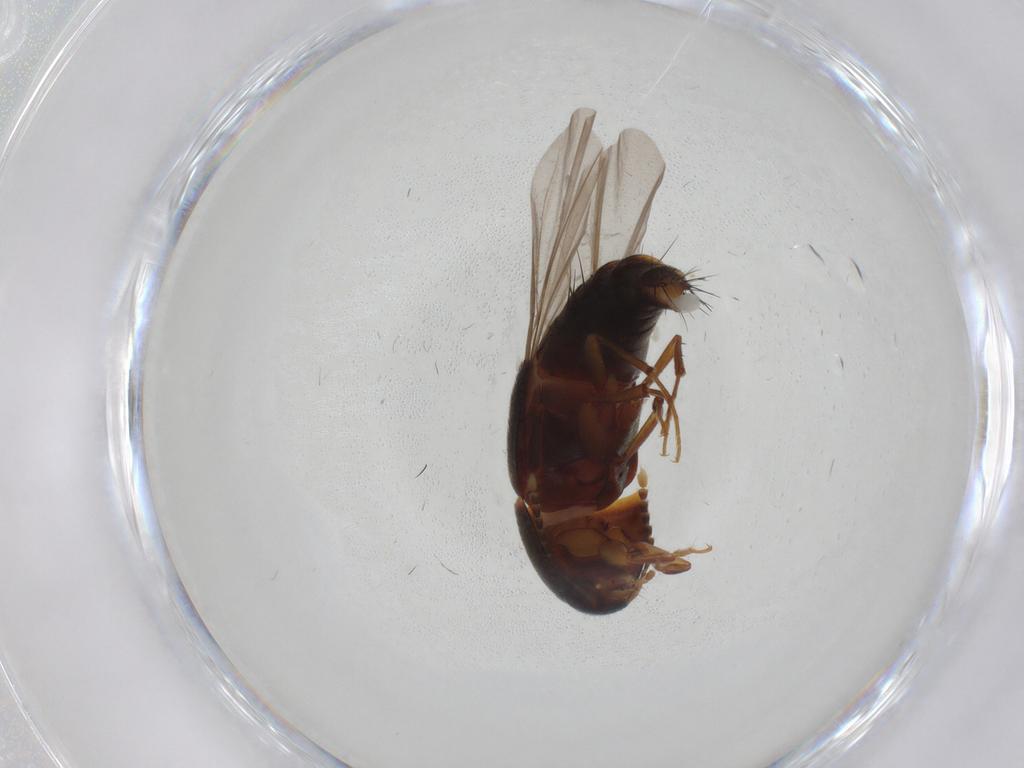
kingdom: Animalia
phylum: Arthropoda
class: Insecta
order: Coleoptera
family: Staphylinidae
